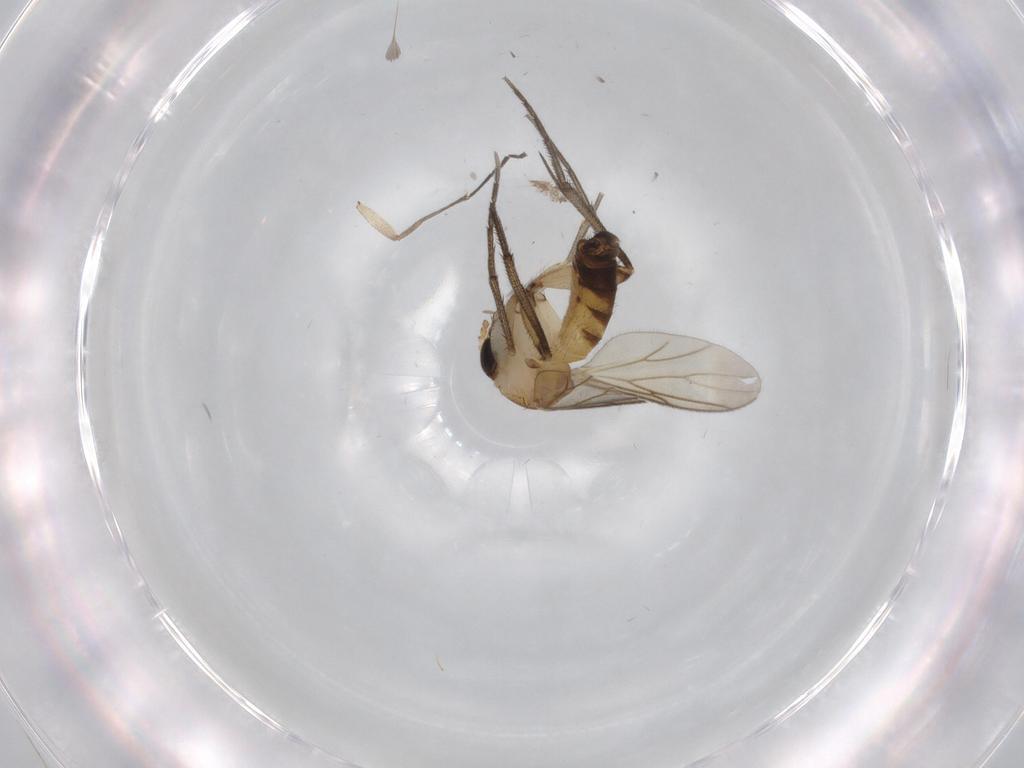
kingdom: Animalia
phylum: Arthropoda
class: Insecta
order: Diptera
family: Sciaridae
